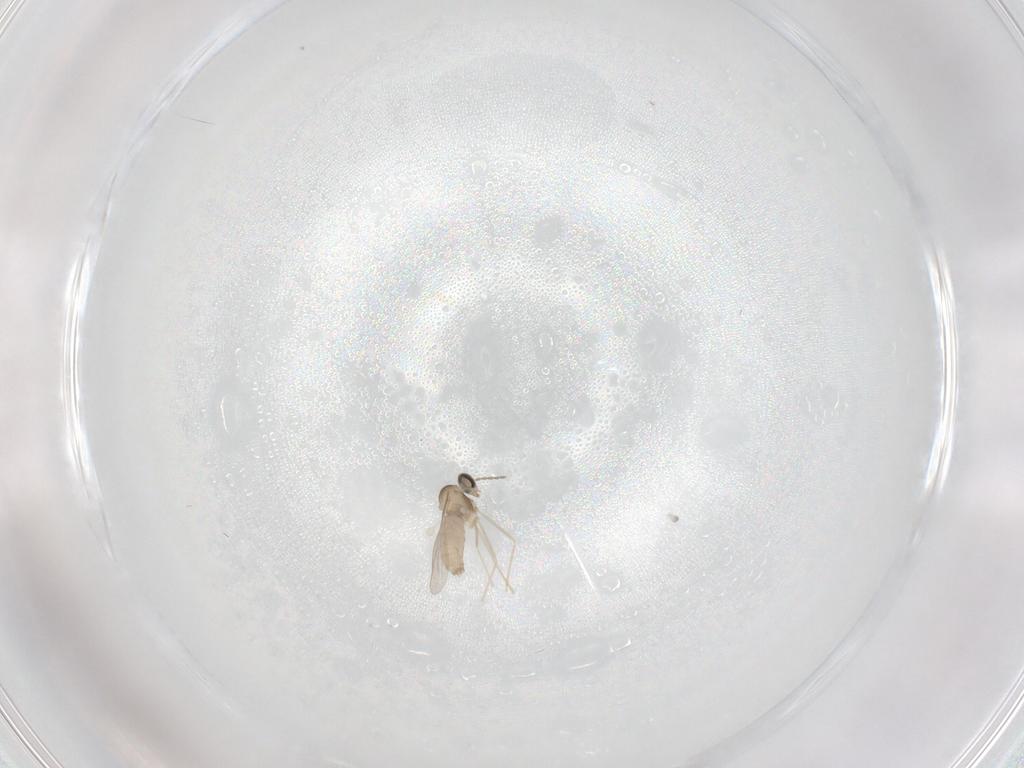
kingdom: Animalia
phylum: Arthropoda
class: Insecta
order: Diptera
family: Cecidomyiidae
